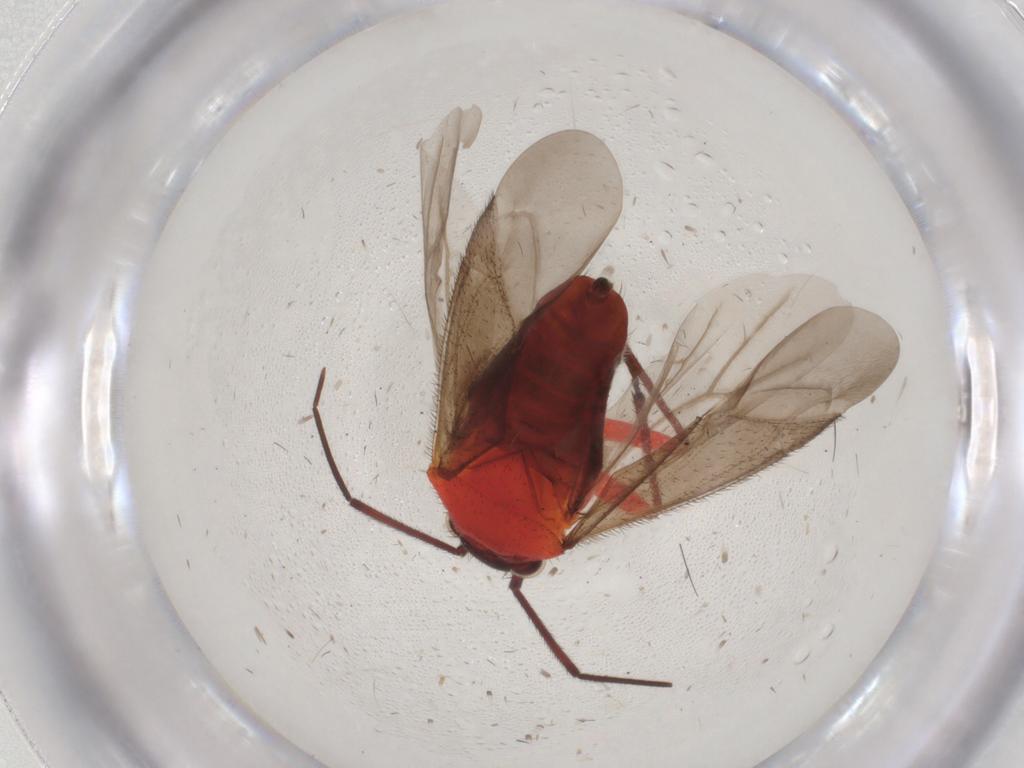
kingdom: Animalia
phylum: Arthropoda
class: Insecta
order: Hemiptera
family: Miridae
